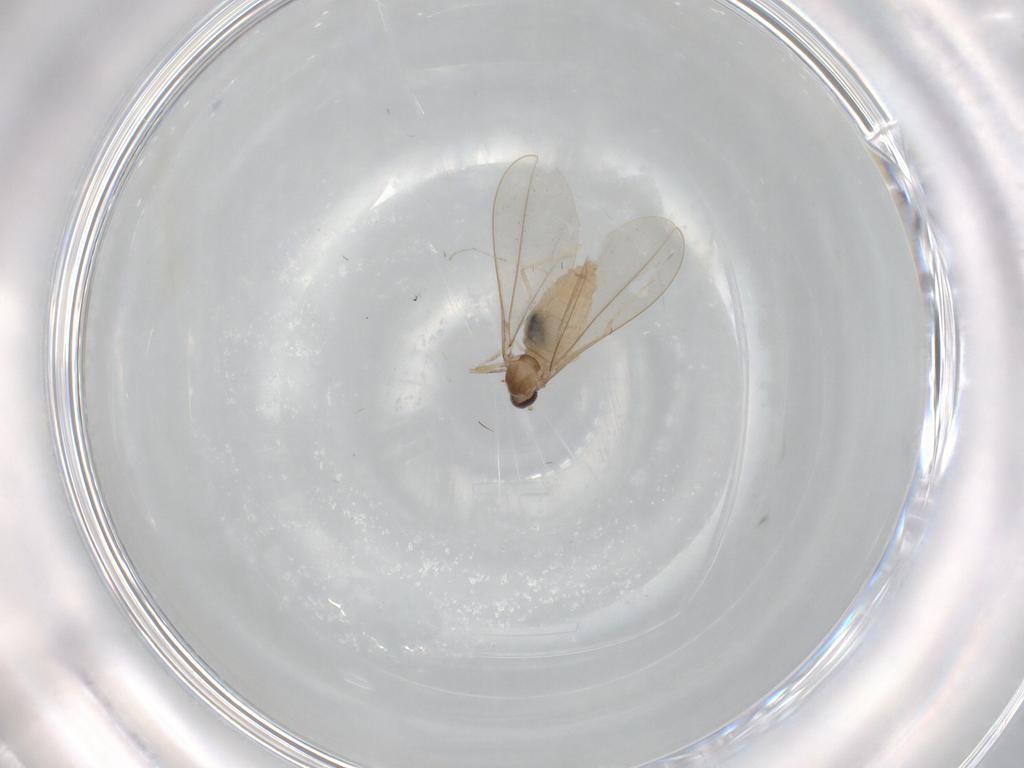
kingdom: Animalia
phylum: Arthropoda
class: Insecta
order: Diptera
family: Cecidomyiidae
